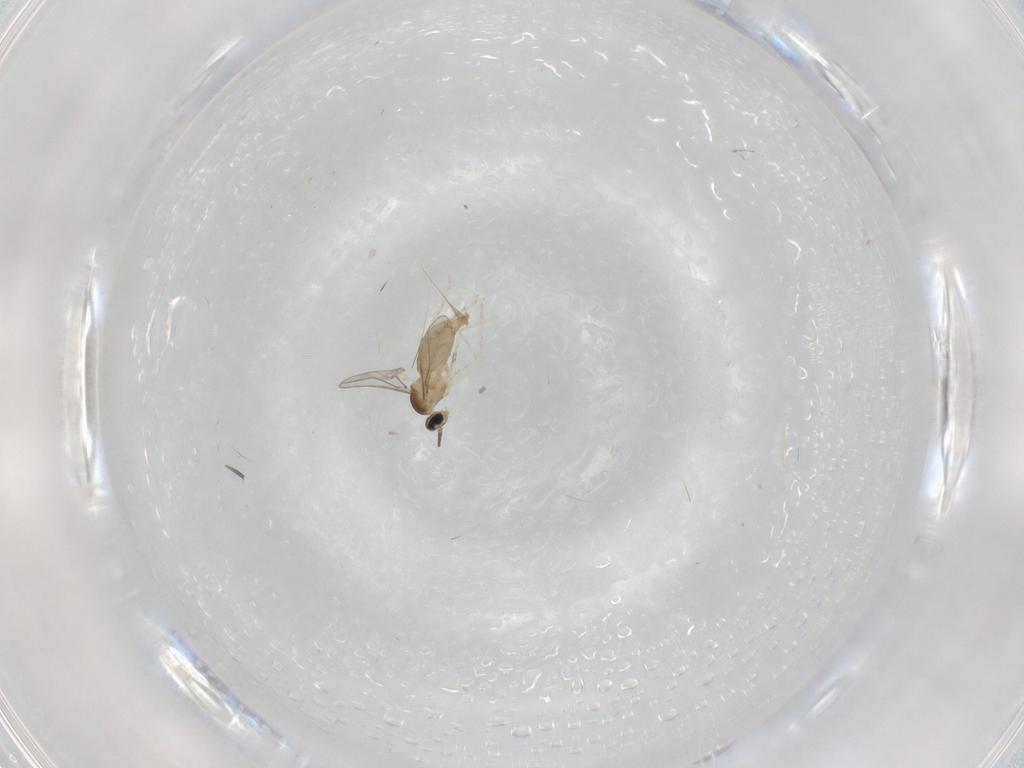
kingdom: Animalia
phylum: Arthropoda
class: Insecta
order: Diptera
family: Cecidomyiidae
